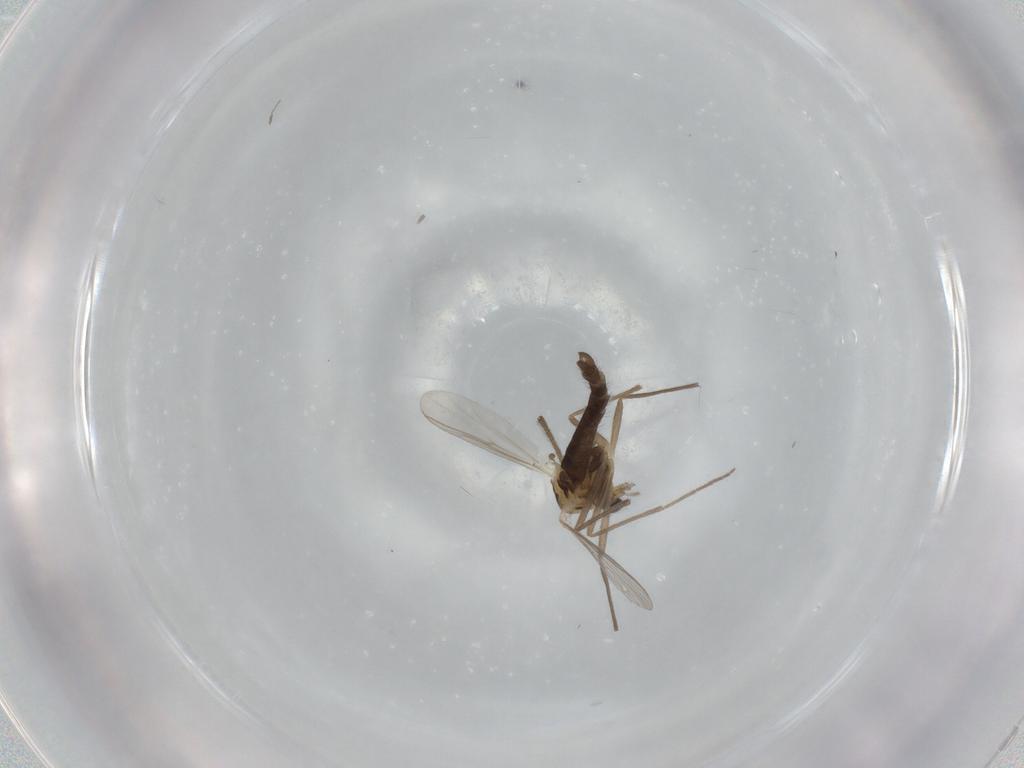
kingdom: Animalia
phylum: Arthropoda
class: Insecta
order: Diptera
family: Chironomidae
